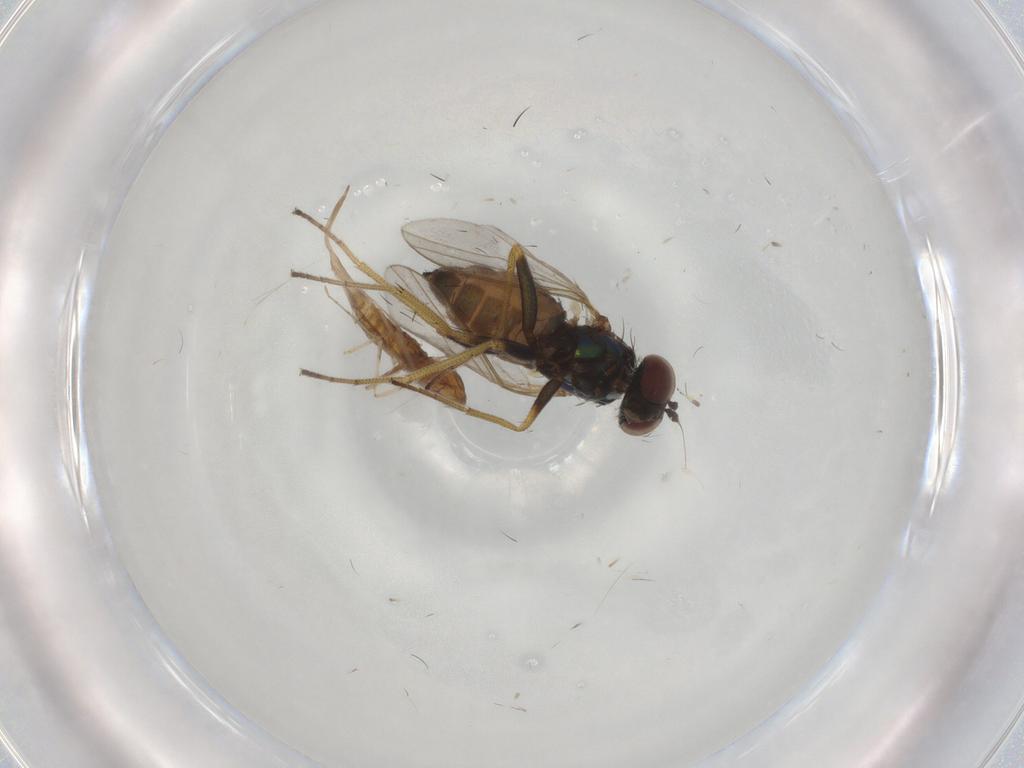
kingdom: Animalia
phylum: Arthropoda
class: Insecta
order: Diptera
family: Dolichopodidae
